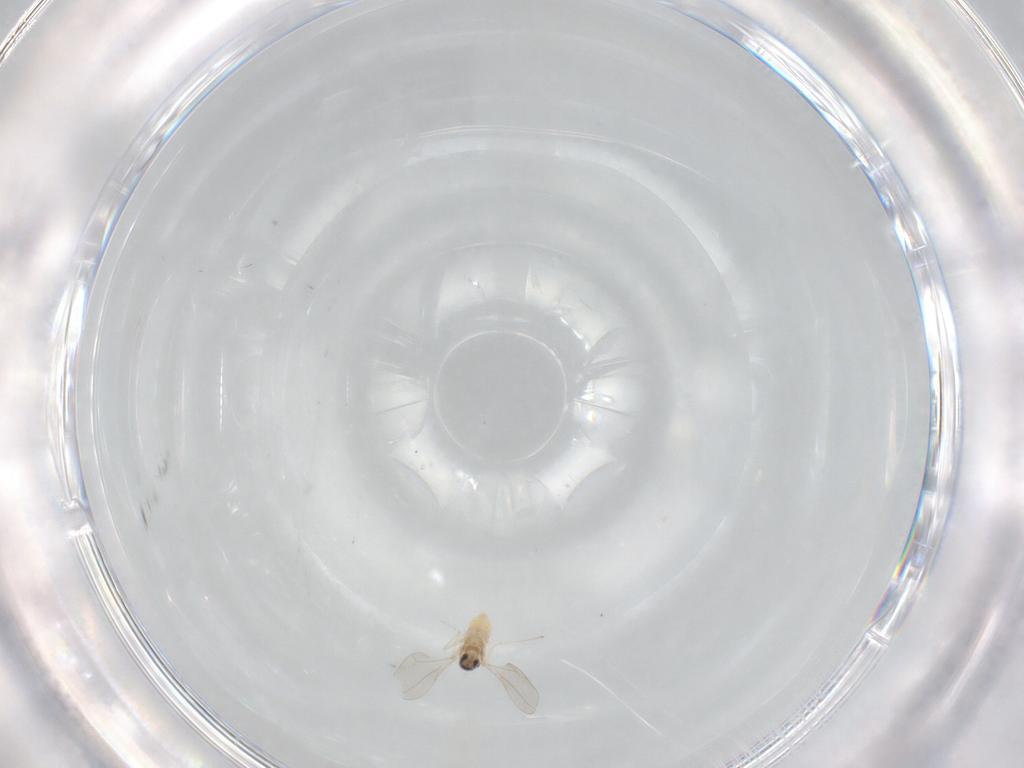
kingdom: Animalia
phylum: Arthropoda
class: Insecta
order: Diptera
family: Cecidomyiidae
